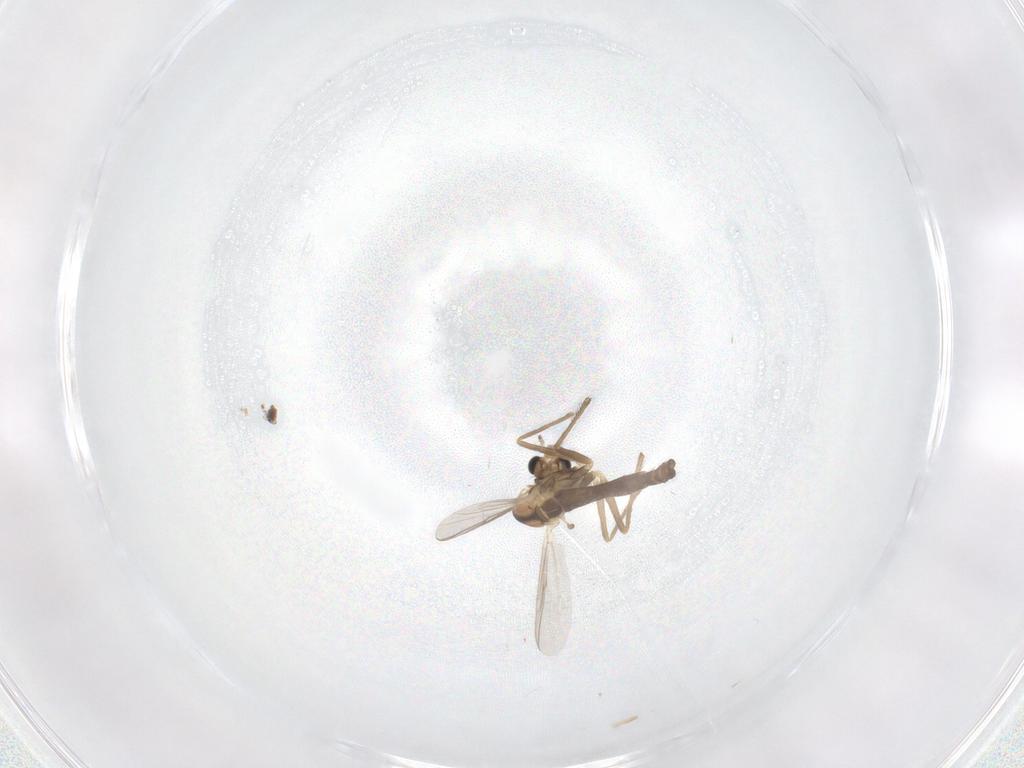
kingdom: Animalia
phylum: Arthropoda
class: Insecta
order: Diptera
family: Chironomidae
